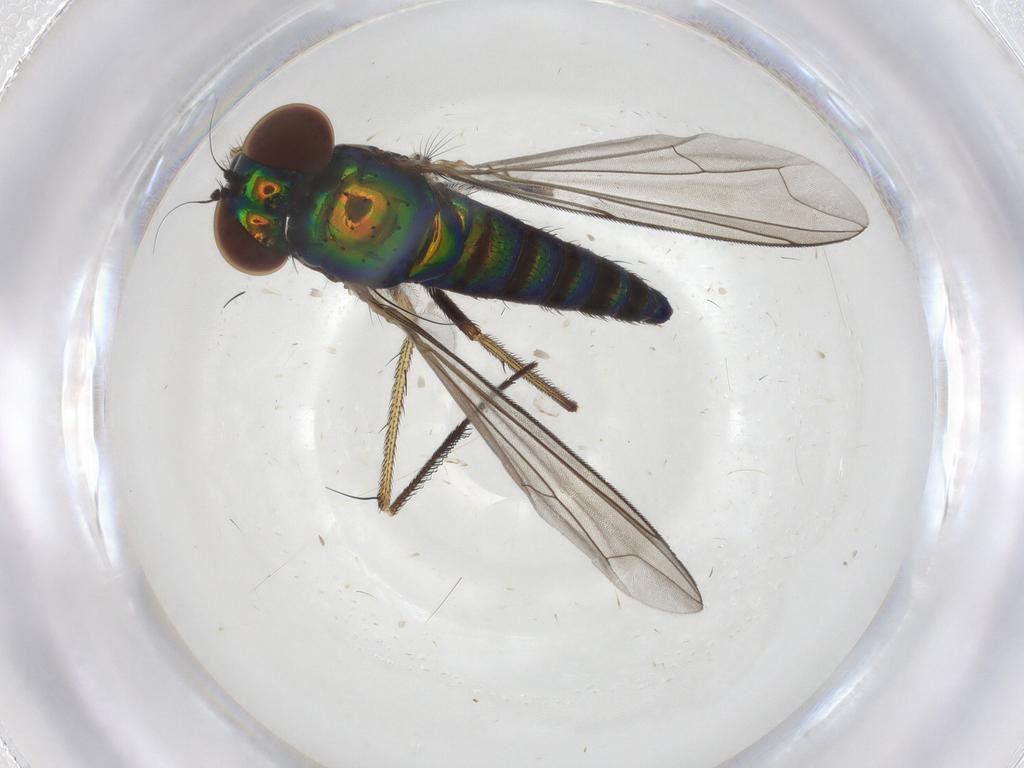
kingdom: Animalia
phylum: Arthropoda
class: Insecta
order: Diptera
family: Dolichopodidae
